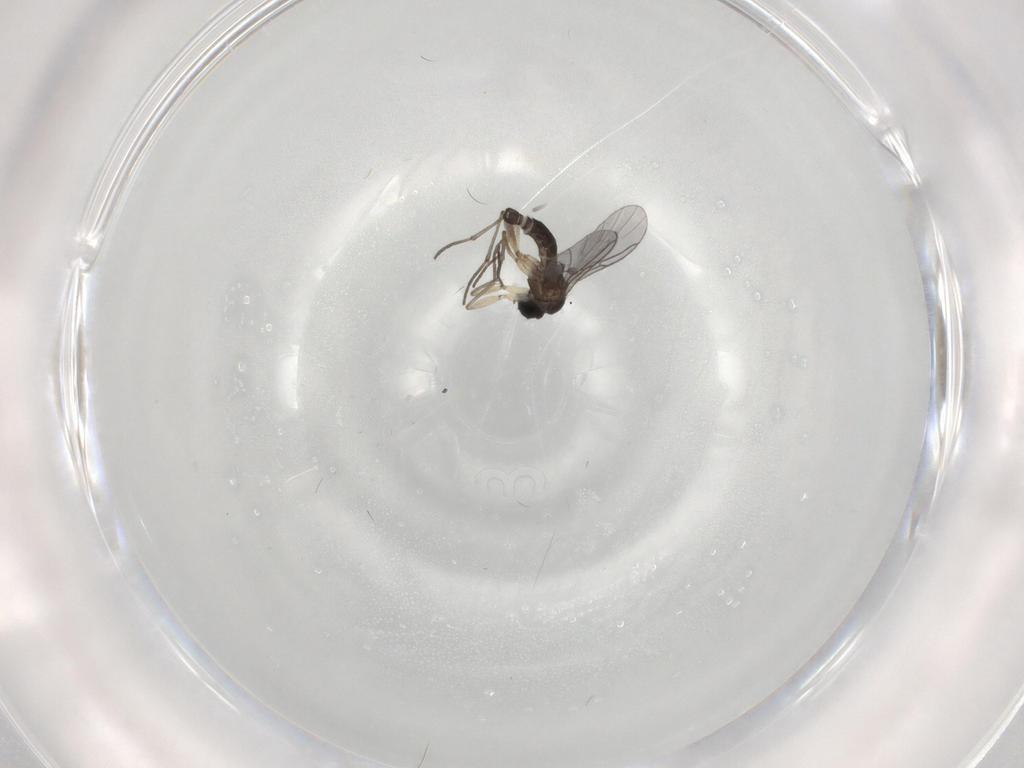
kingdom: Animalia
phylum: Arthropoda
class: Insecta
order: Diptera
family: Sciaridae
